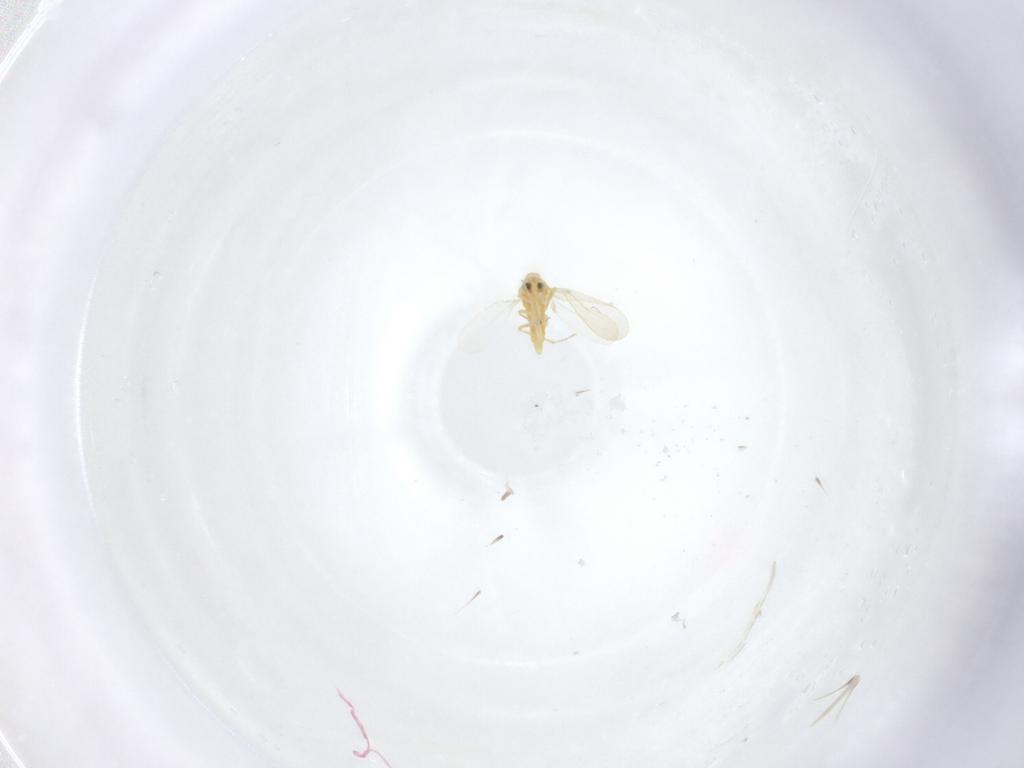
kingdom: Animalia
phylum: Arthropoda
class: Insecta
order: Hemiptera
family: Aleyrodidae
